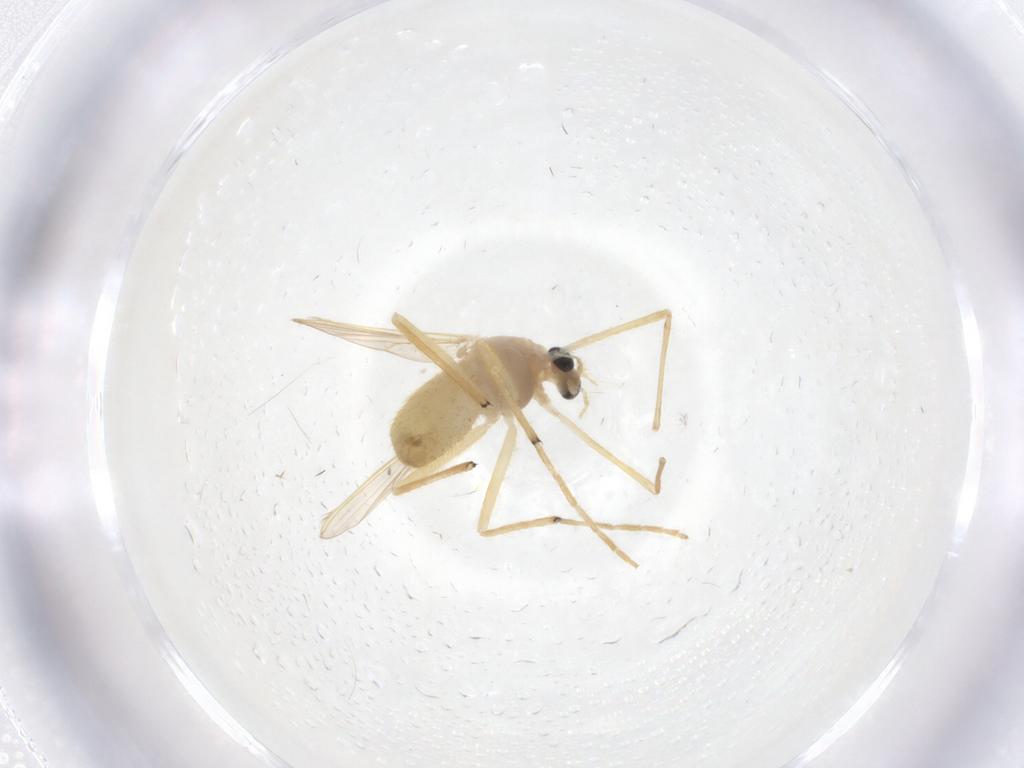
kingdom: Animalia
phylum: Arthropoda
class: Insecta
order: Diptera
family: Chironomidae
